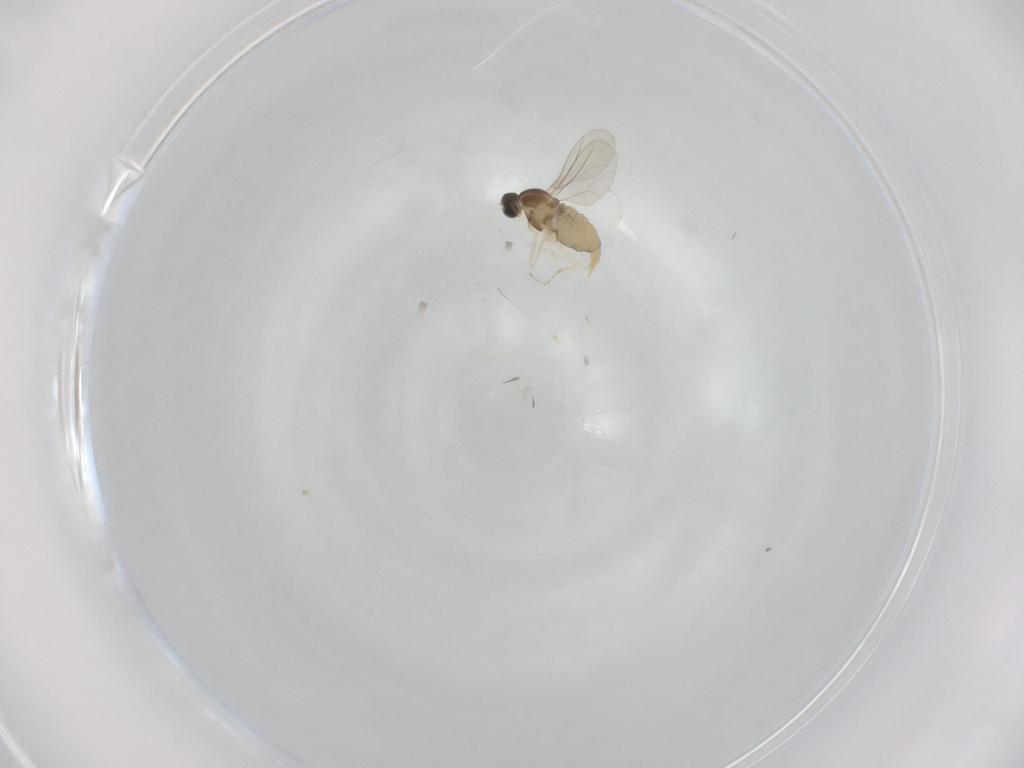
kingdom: Animalia
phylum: Arthropoda
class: Insecta
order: Diptera
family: Cecidomyiidae
